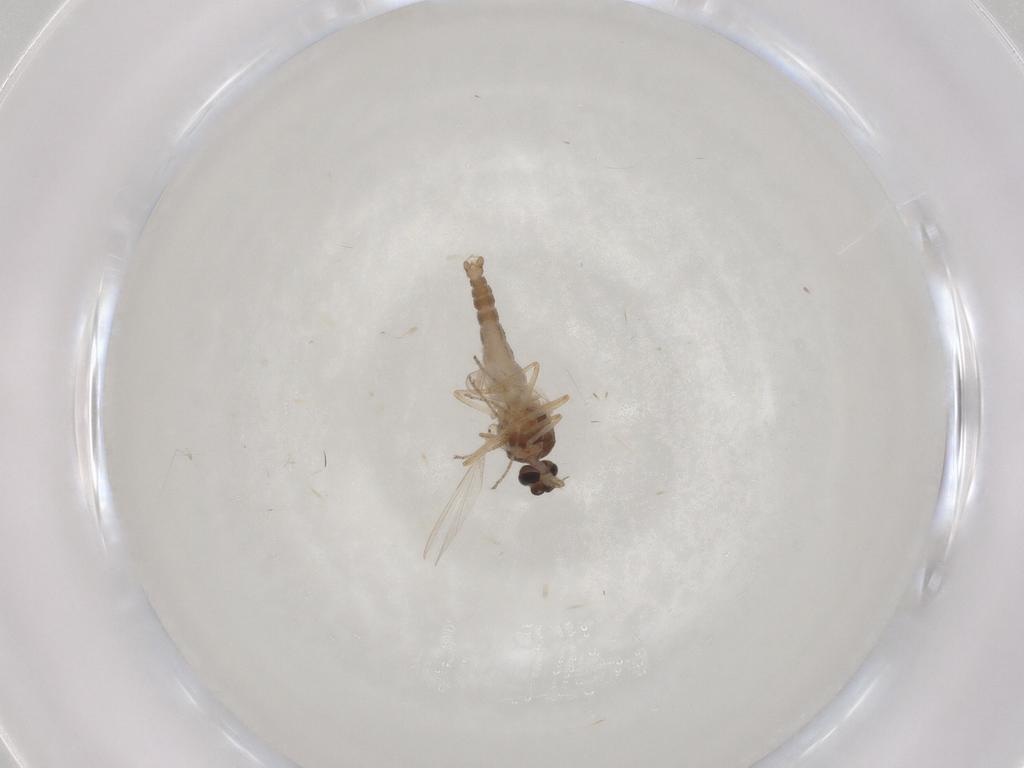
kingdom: Animalia
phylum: Arthropoda
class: Insecta
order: Diptera
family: Ceratopogonidae
